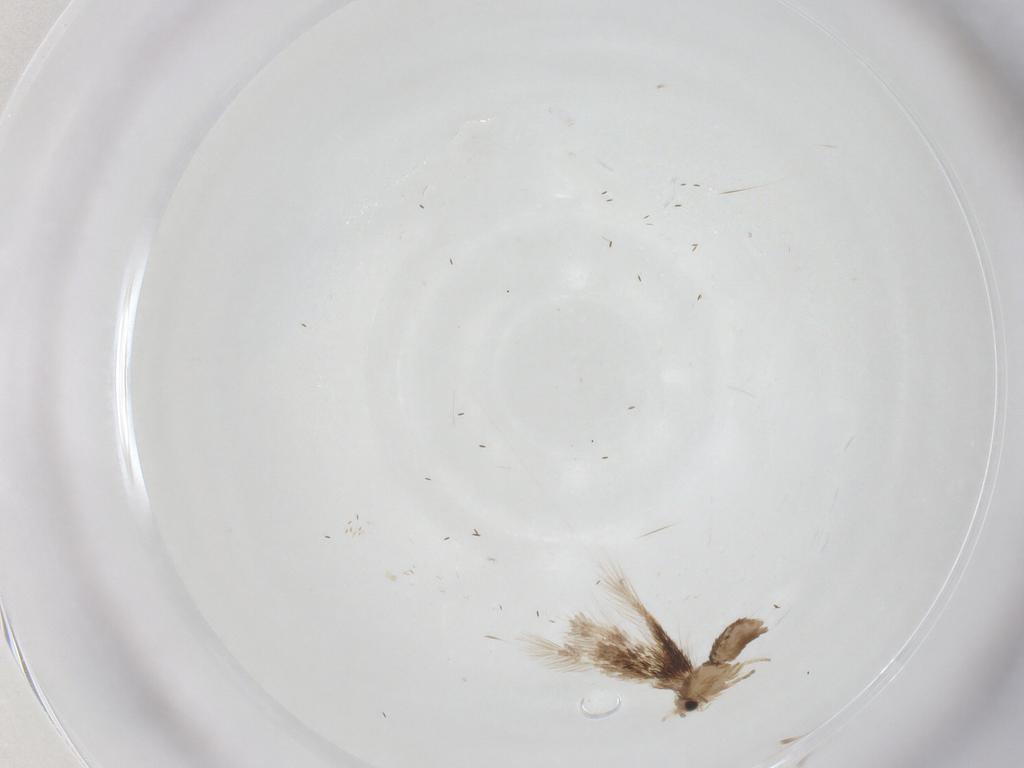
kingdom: Animalia
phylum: Arthropoda
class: Insecta
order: Lepidoptera
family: Nepticulidae
